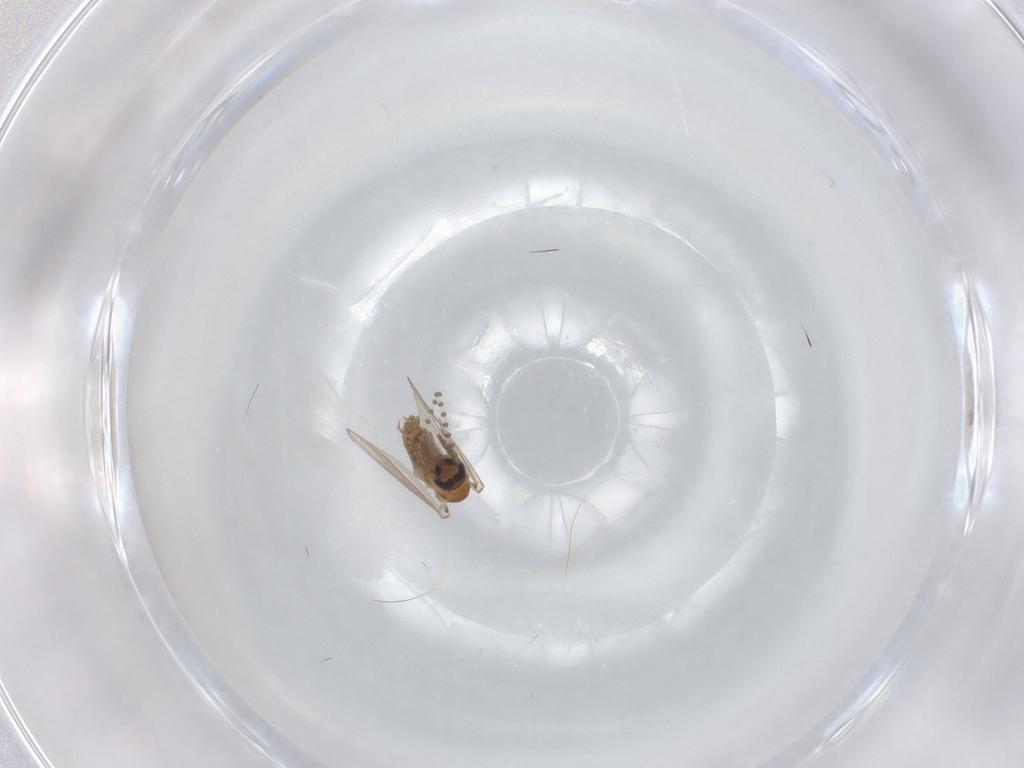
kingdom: Animalia
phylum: Arthropoda
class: Insecta
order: Diptera
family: Psychodidae
